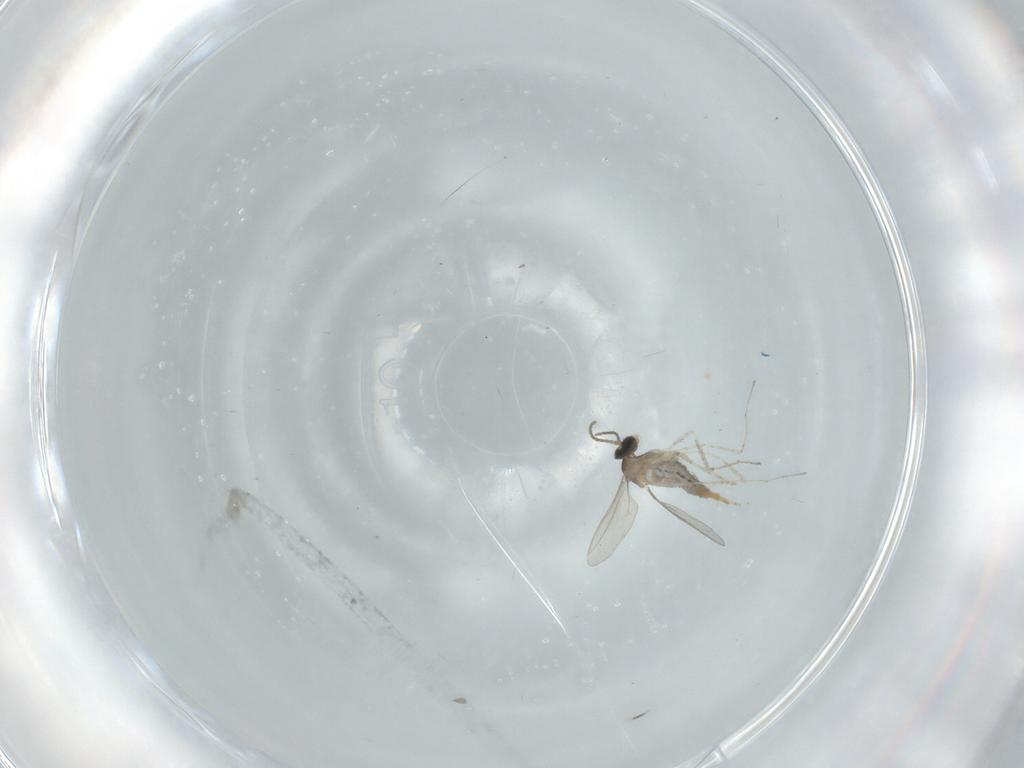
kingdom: Animalia
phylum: Arthropoda
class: Insecta
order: Diptera
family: Cecidomyiidae
